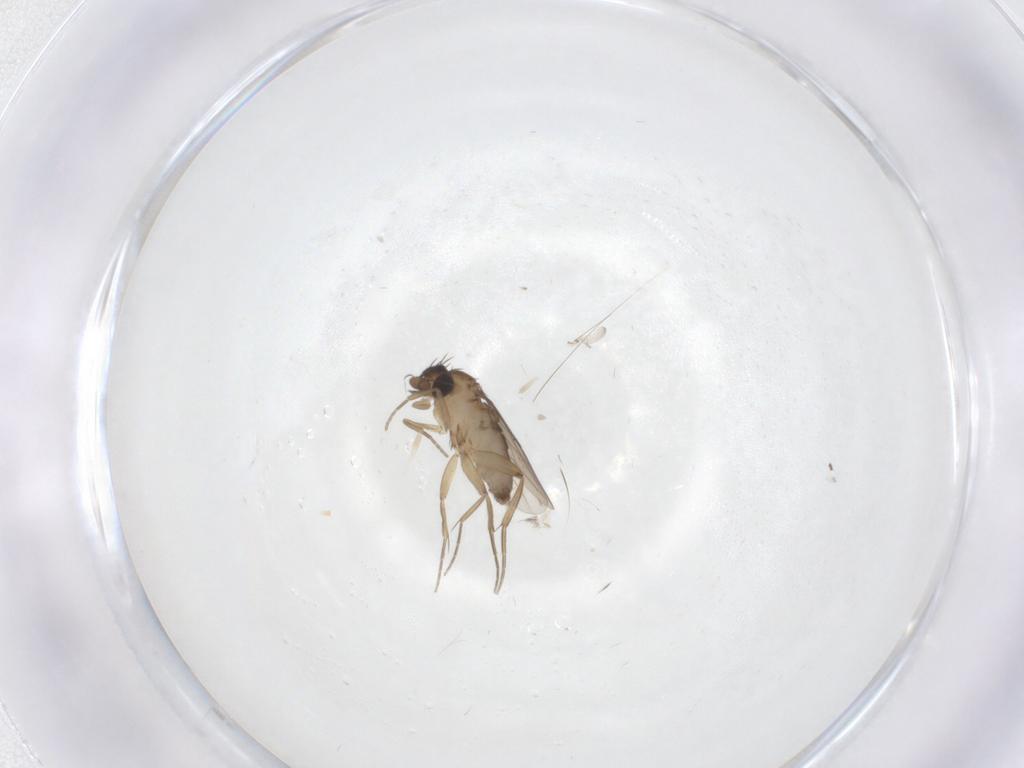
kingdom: Animalia
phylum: Arthropoda
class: Insecta
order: Diptera
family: Phoridae
